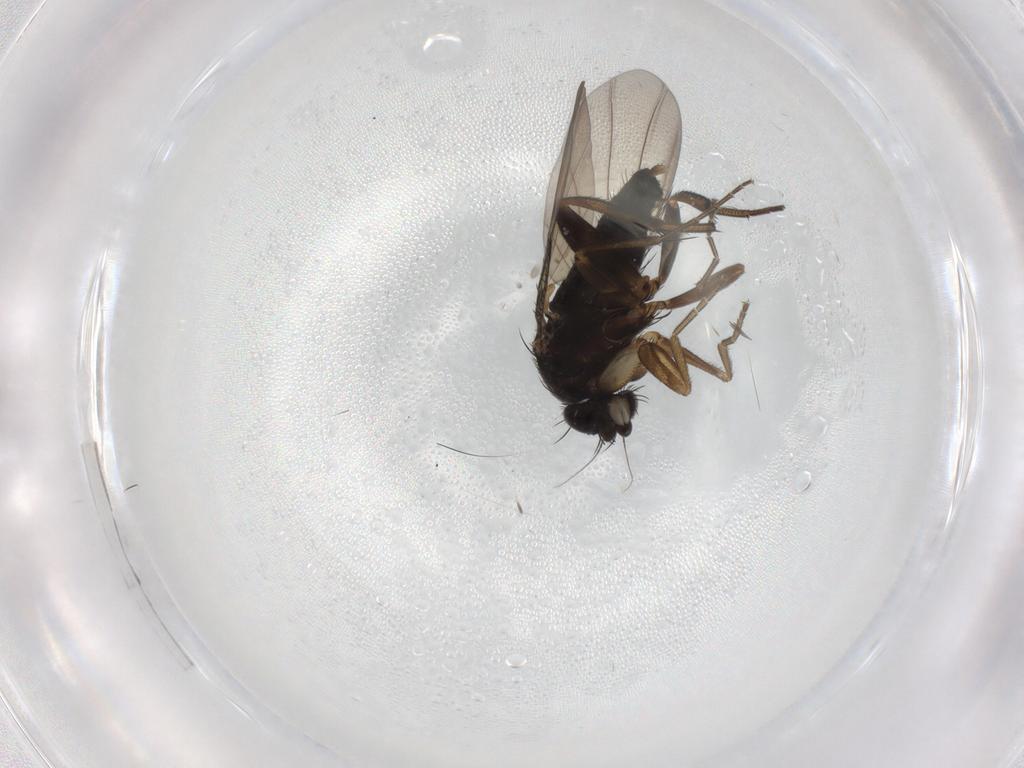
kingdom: Animalia
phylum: Arthropoda
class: Insecta
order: Diptera
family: Phoridae
